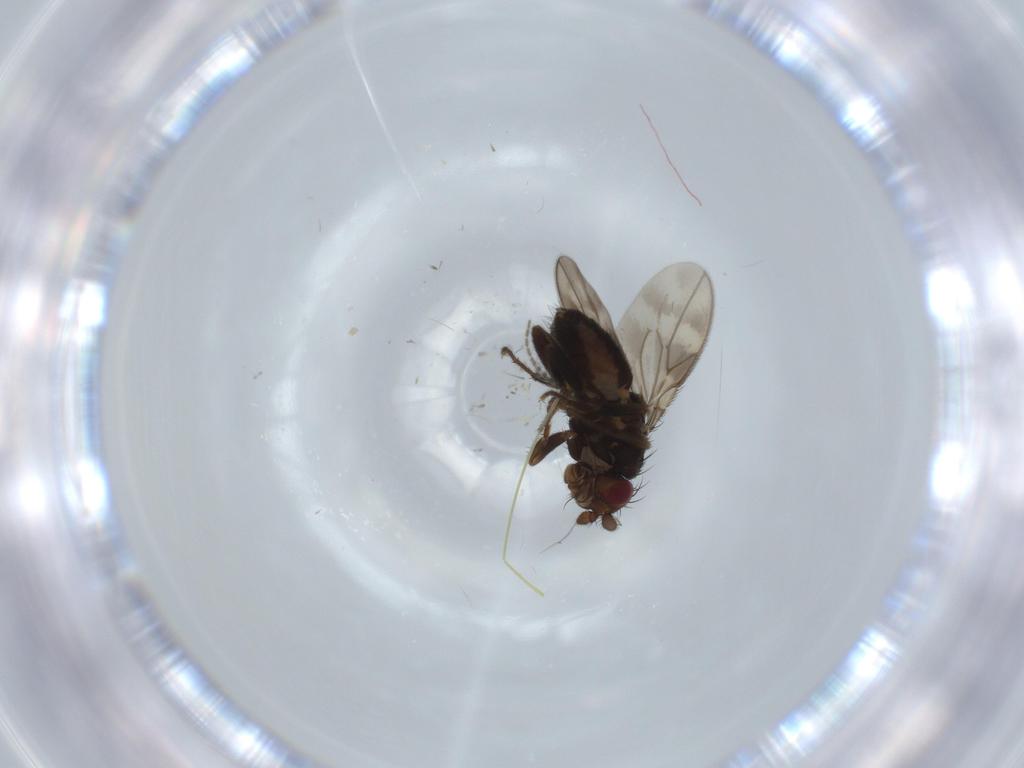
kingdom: Animalia
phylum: Arthropoda
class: Insecta
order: Diptera
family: Sphaeroceridae
